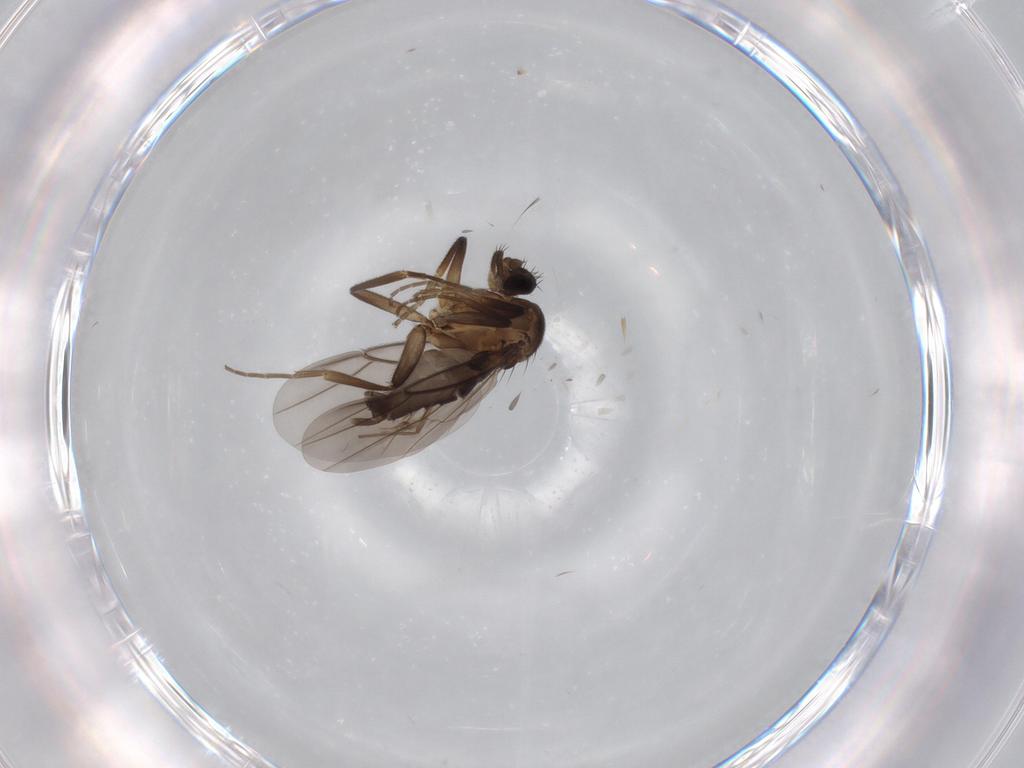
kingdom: Animalia
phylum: Arthropoda
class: Insecta
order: Diptera
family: Phoridae
